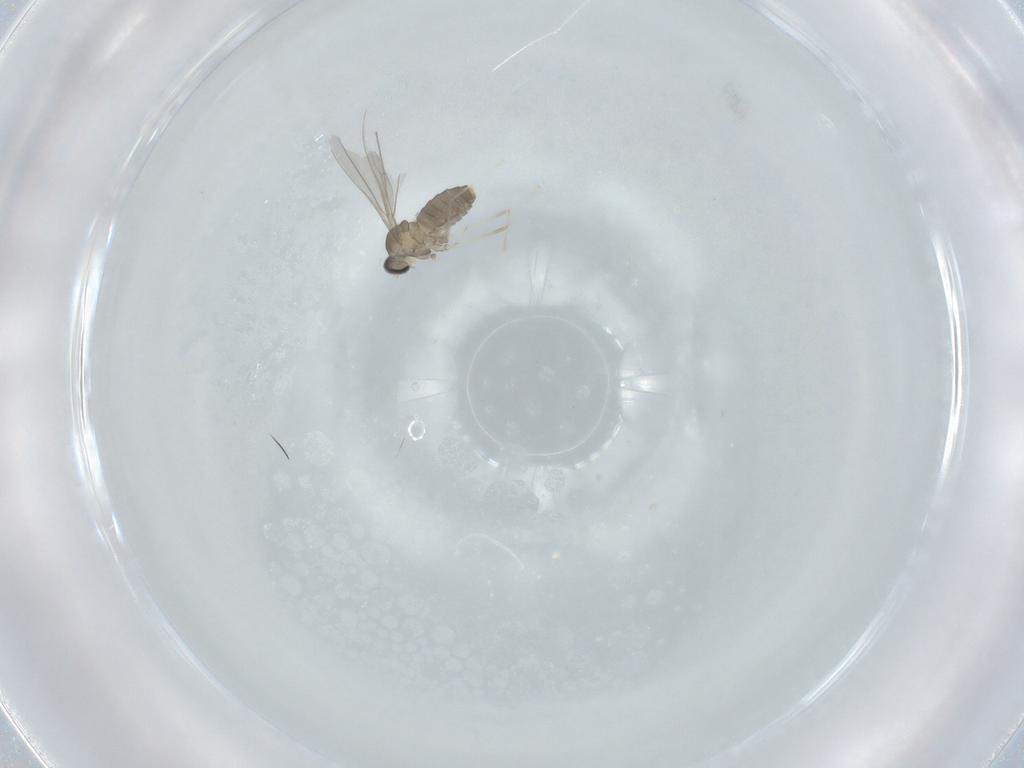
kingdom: Animalia
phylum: Arthropoda
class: Insecta
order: Diptera
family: Cecidomyiidae
